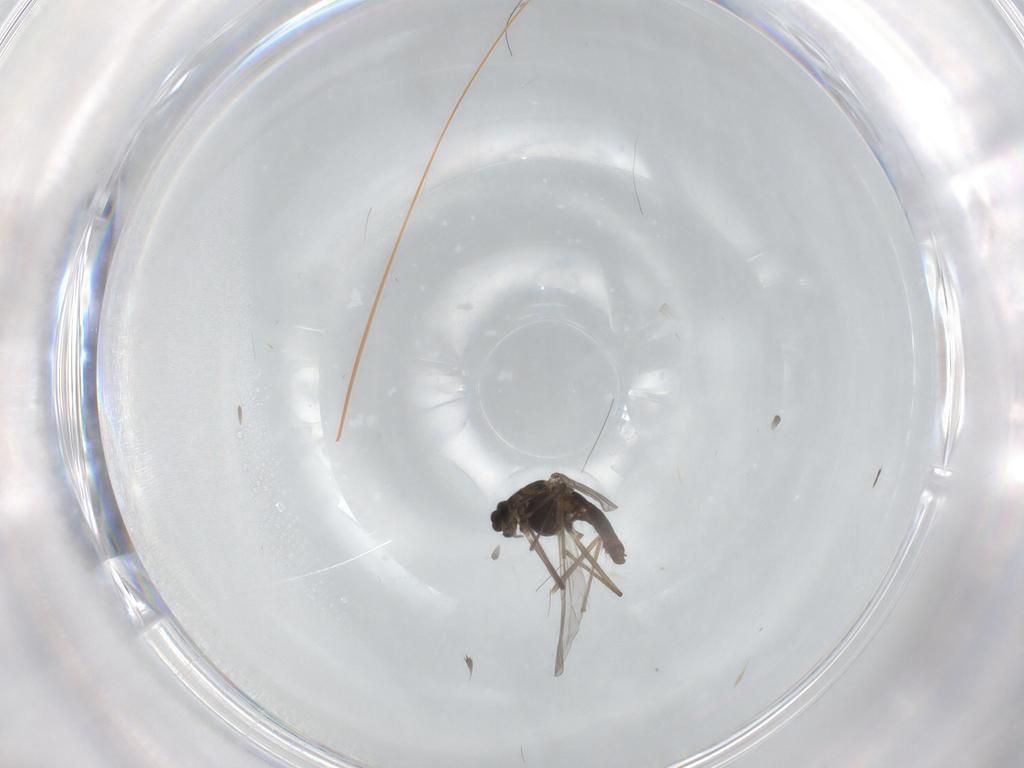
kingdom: Animalia
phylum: Arthropoda
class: Insecta
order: Diptera
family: Chironomidae
